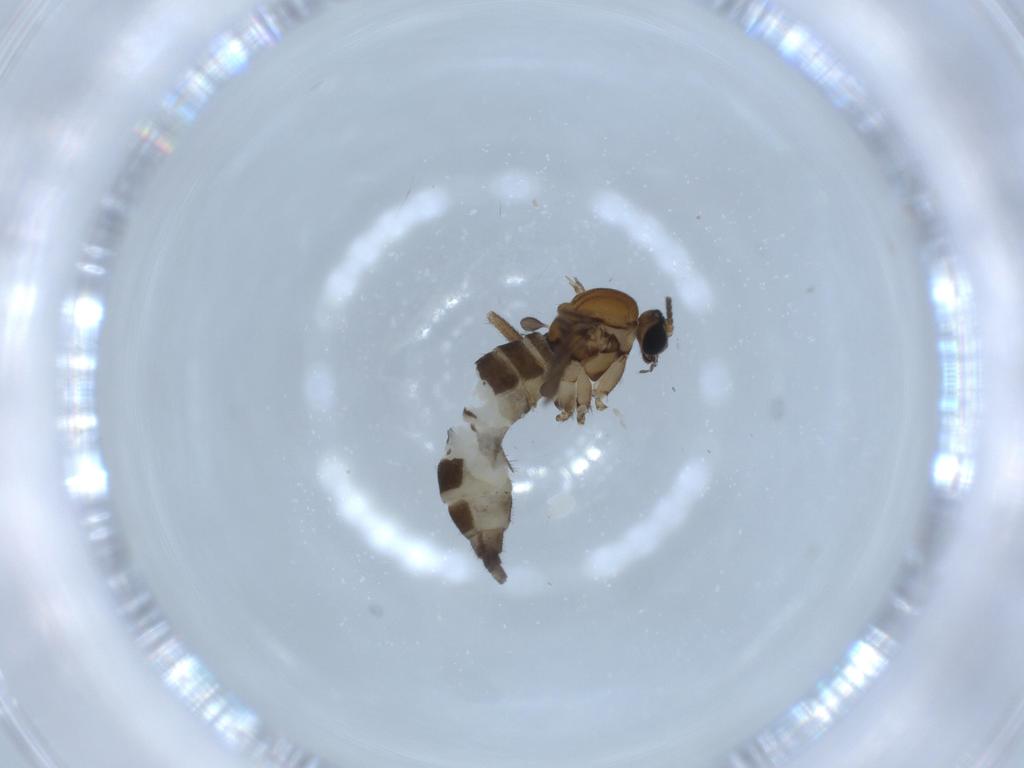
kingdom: Animalia
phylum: Arthropoda
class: Insecta
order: Diptera
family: Sciaridae
